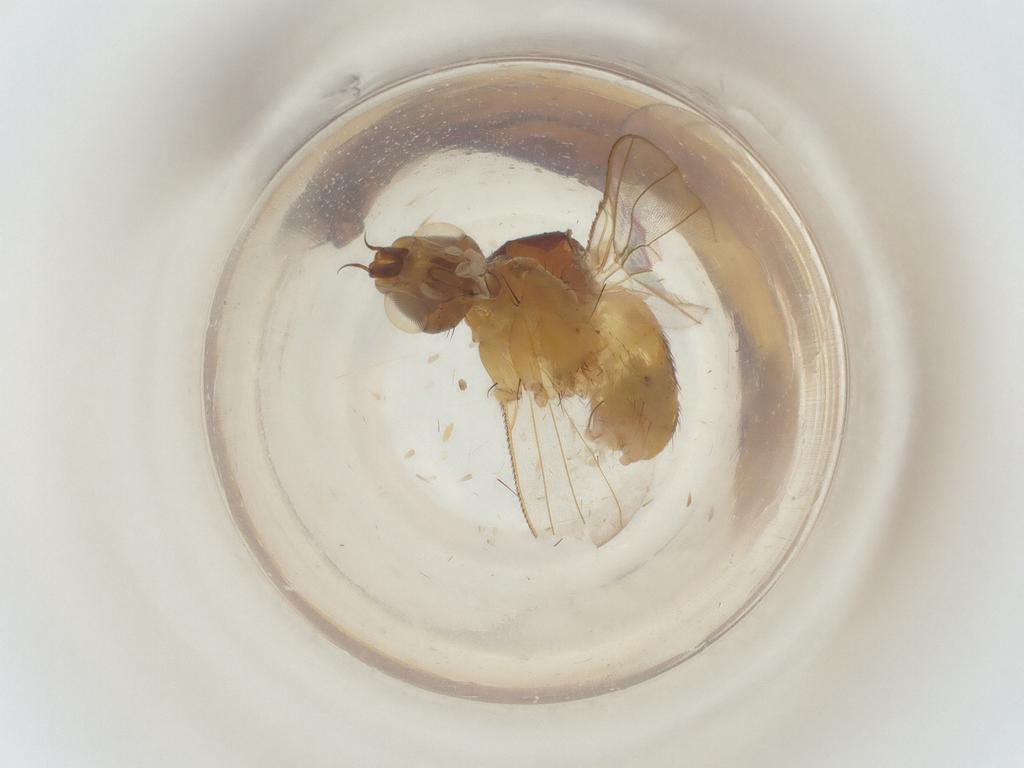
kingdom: Animalia
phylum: Arthropoda
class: Insecta
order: Diptera
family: Muscidae
